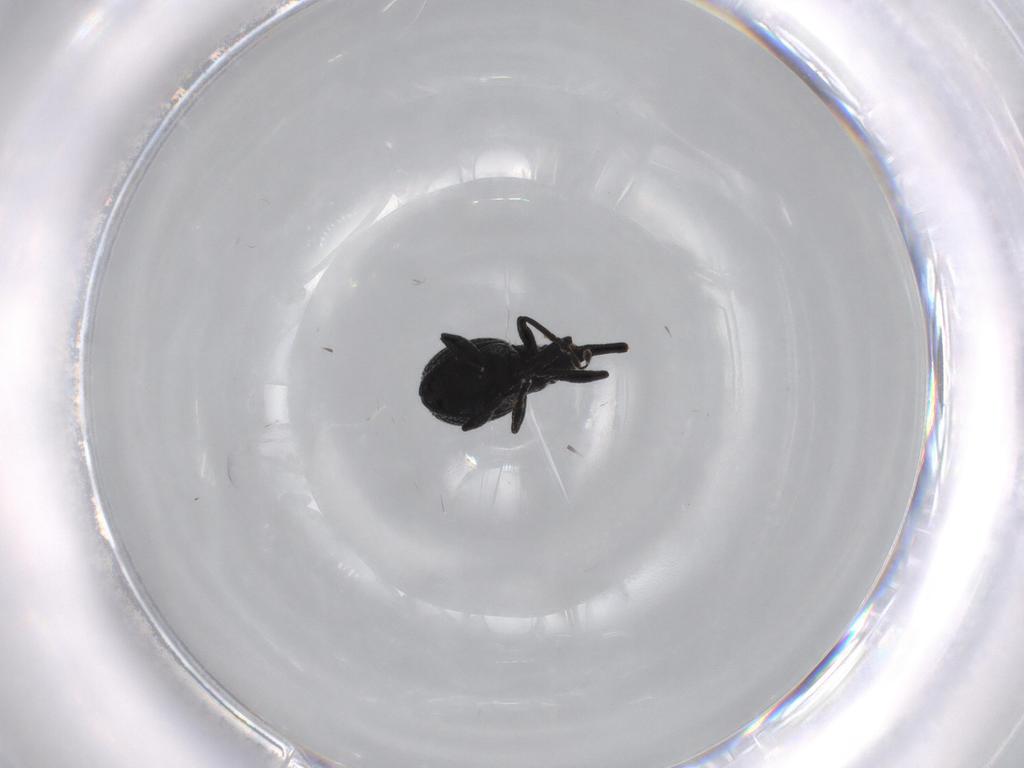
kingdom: Animalia
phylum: Arthropoda
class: Insecta
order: Coleoptera
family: Brentidae
